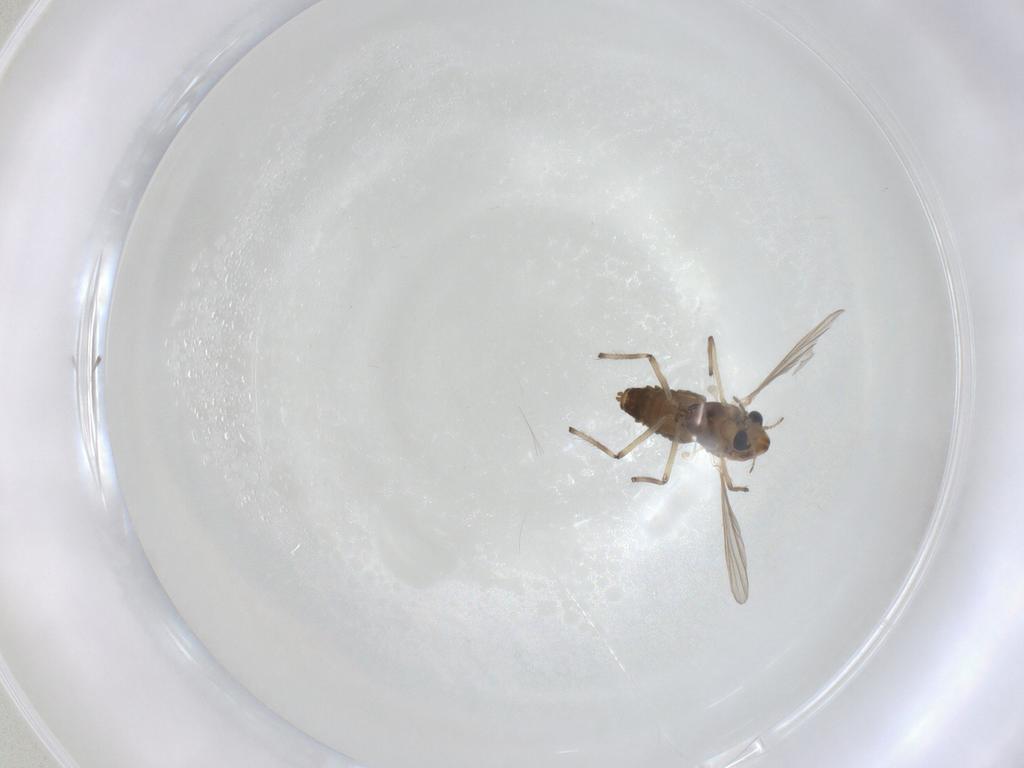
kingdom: Animalia
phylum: Arthropoda
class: Insecta
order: Diptera
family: Chironomidae
